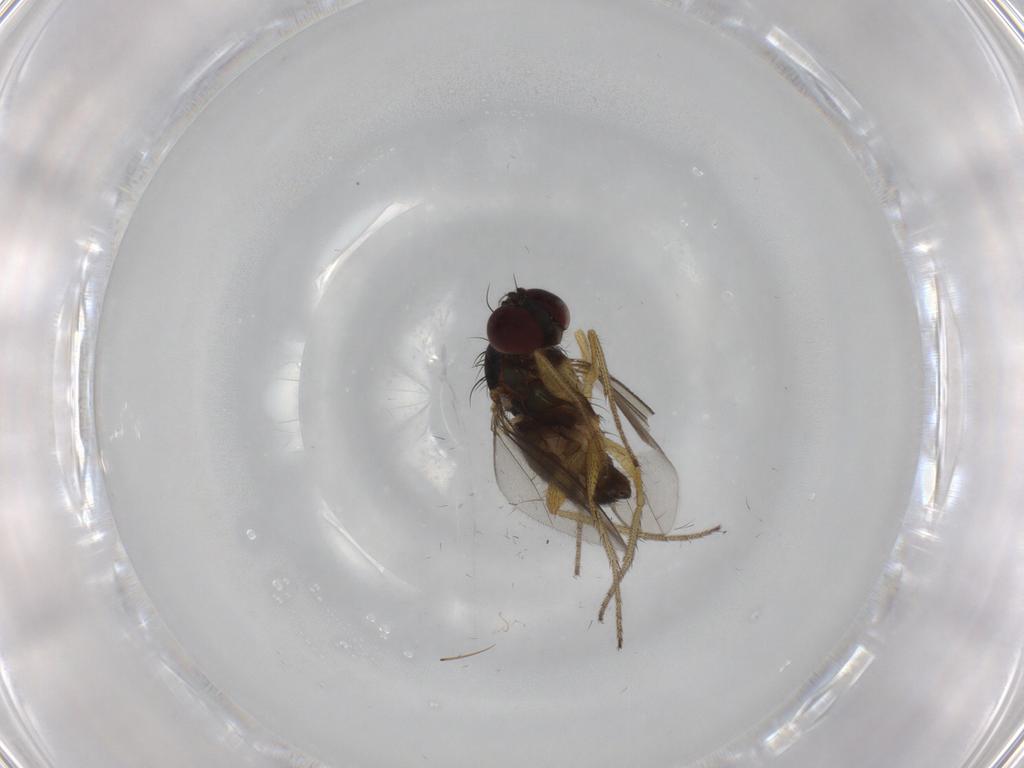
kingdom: Animalia
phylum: Arthropoda
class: Insecta
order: Diptera
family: Dolichopodidae
